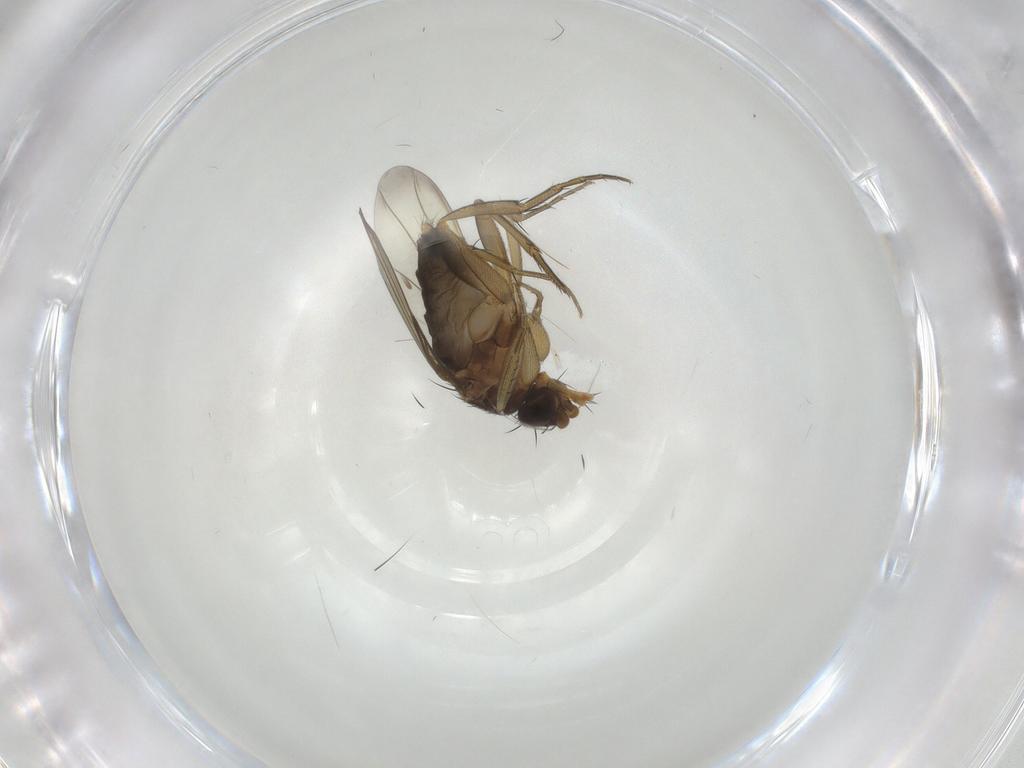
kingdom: Animalia
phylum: Arthropoda
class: Insecta
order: Diptera
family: Phoridae
